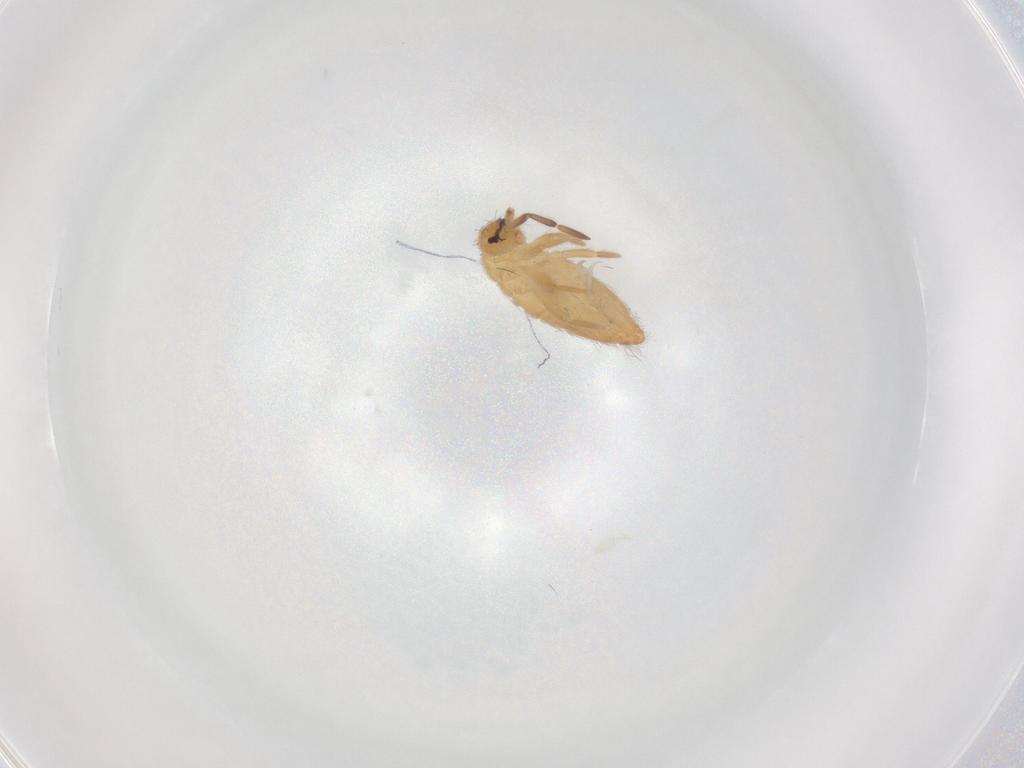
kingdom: Animalia
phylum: Arthropoda
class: Collembola
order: Entomobryomorpha
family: Entomobryidae
